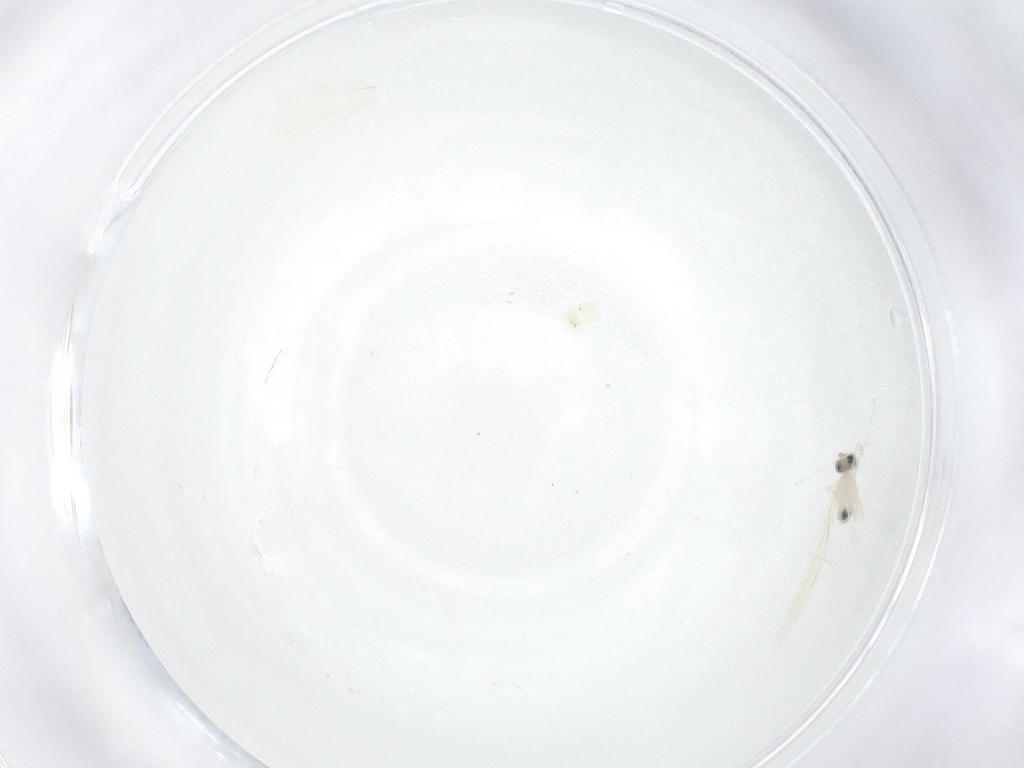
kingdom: Animalia
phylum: Arthropoda
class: Insecta
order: Diptera
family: Cecidomyiidae
